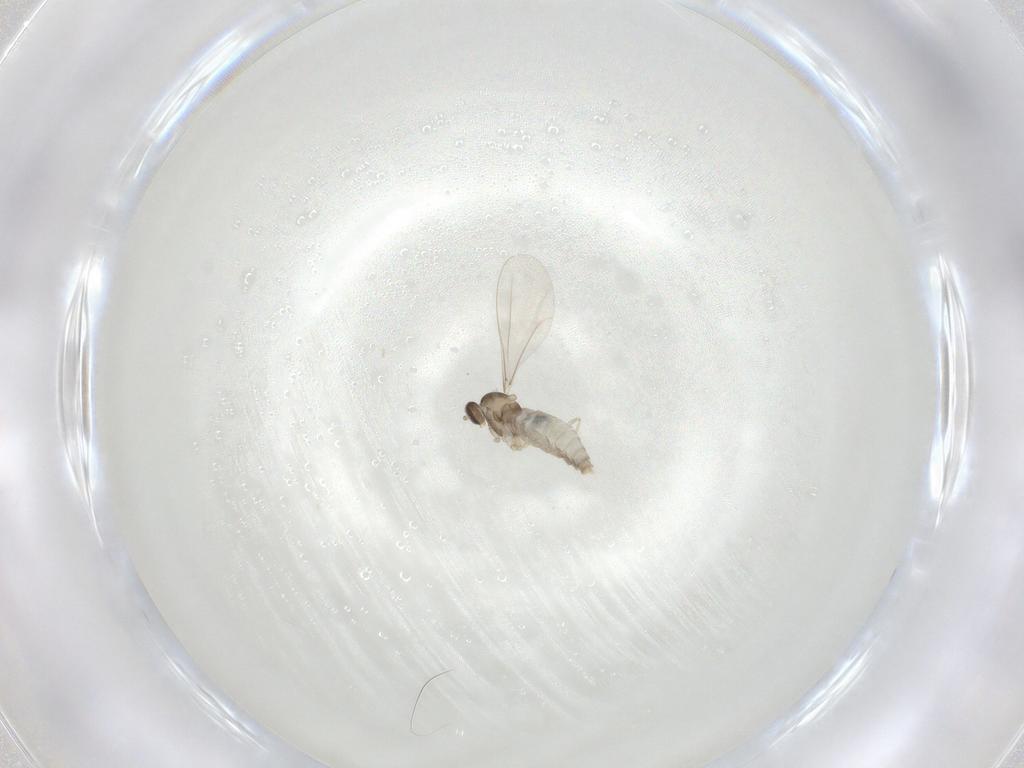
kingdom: Animalia
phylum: Arthropoda
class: Insecta
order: Diptera
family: Cecidomyiidae
